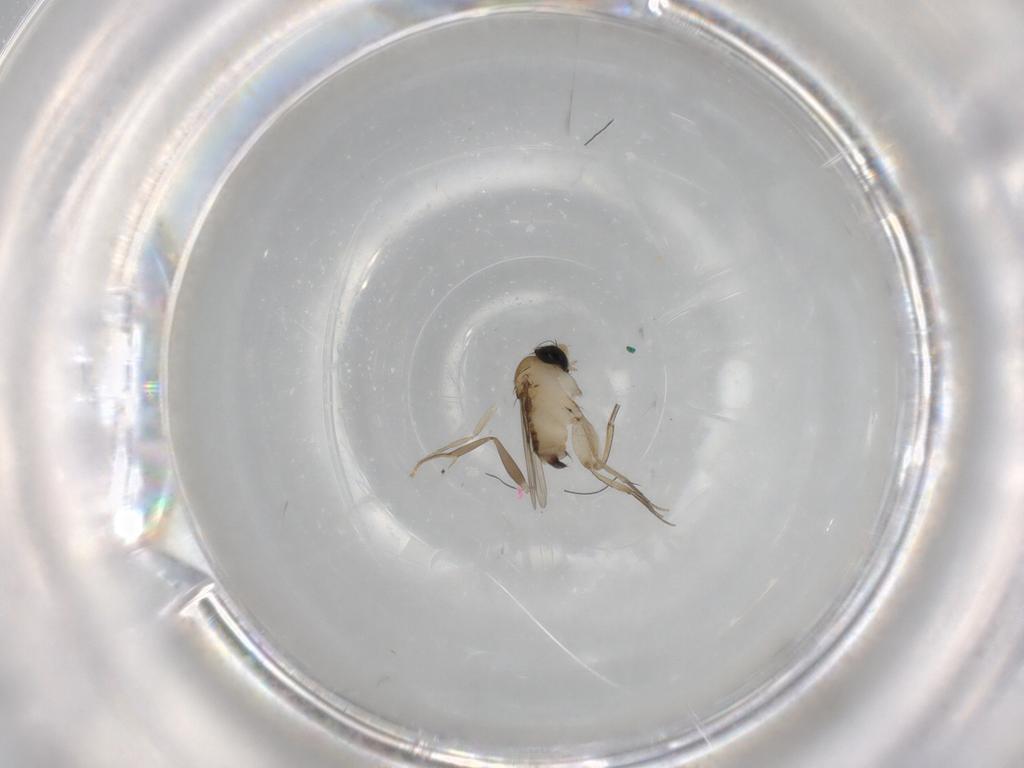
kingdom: Animalia
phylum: Arthropoda
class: Insecta
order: Diptera
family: Phoridae
